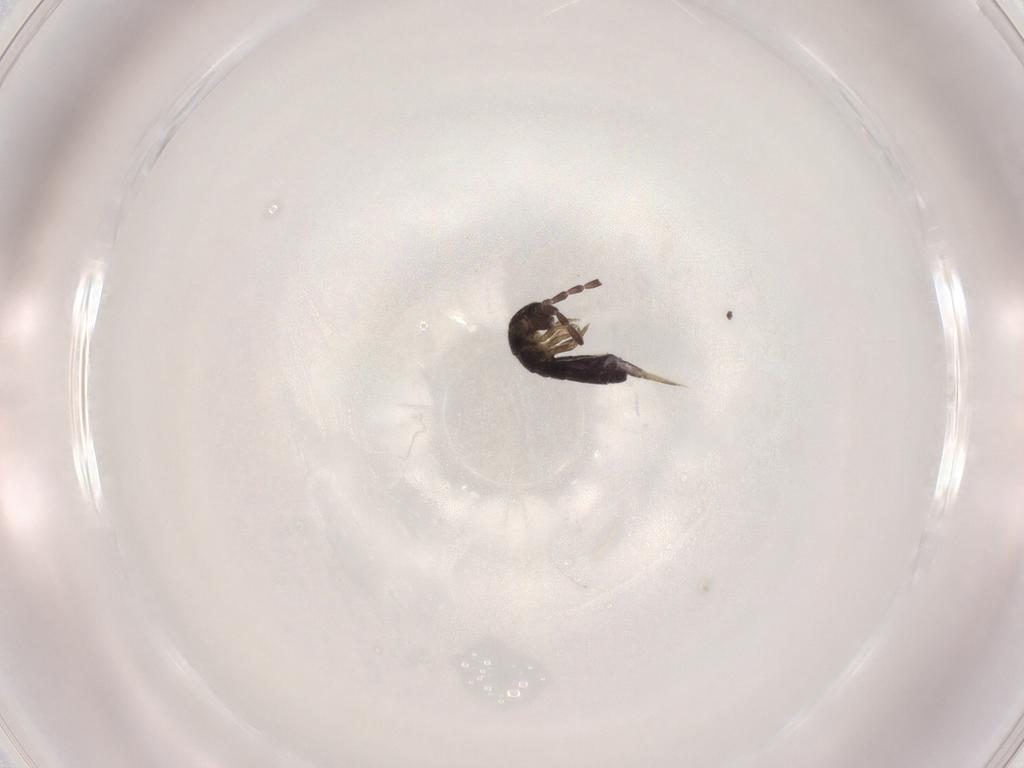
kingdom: Animalia
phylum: Arthropoda
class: Collembola
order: Entomobryomorpha
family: Isotomidae
